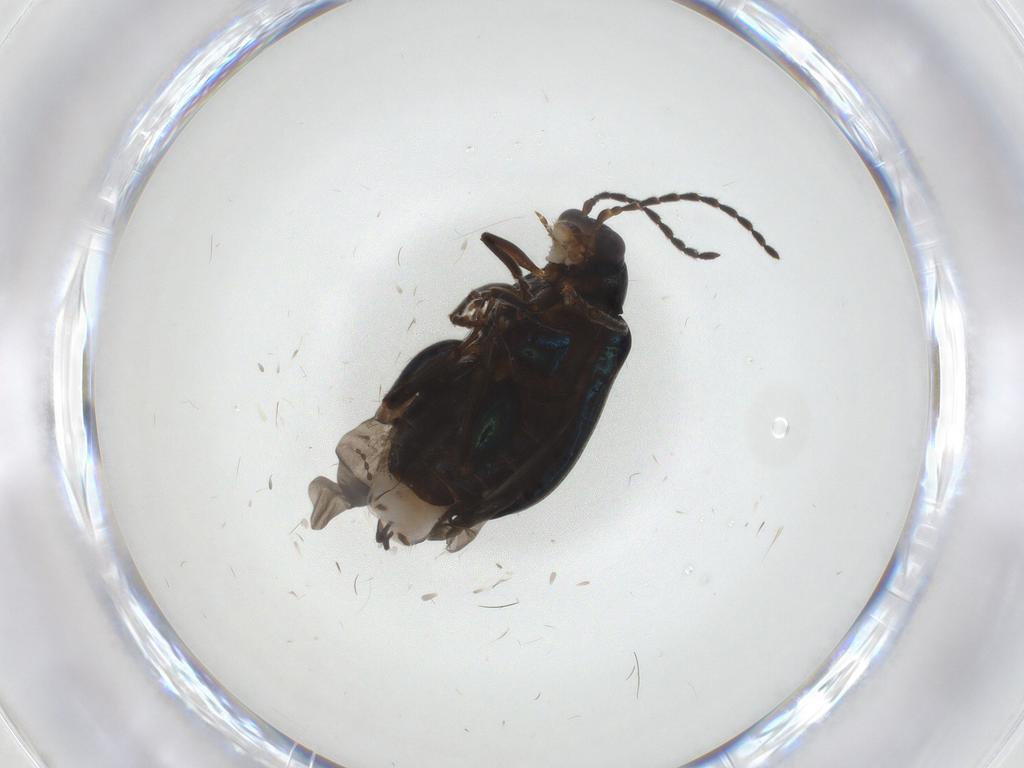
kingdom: Animalia
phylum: Arthropoda
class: Insecta
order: Coleoptera
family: Chrysomelidae
